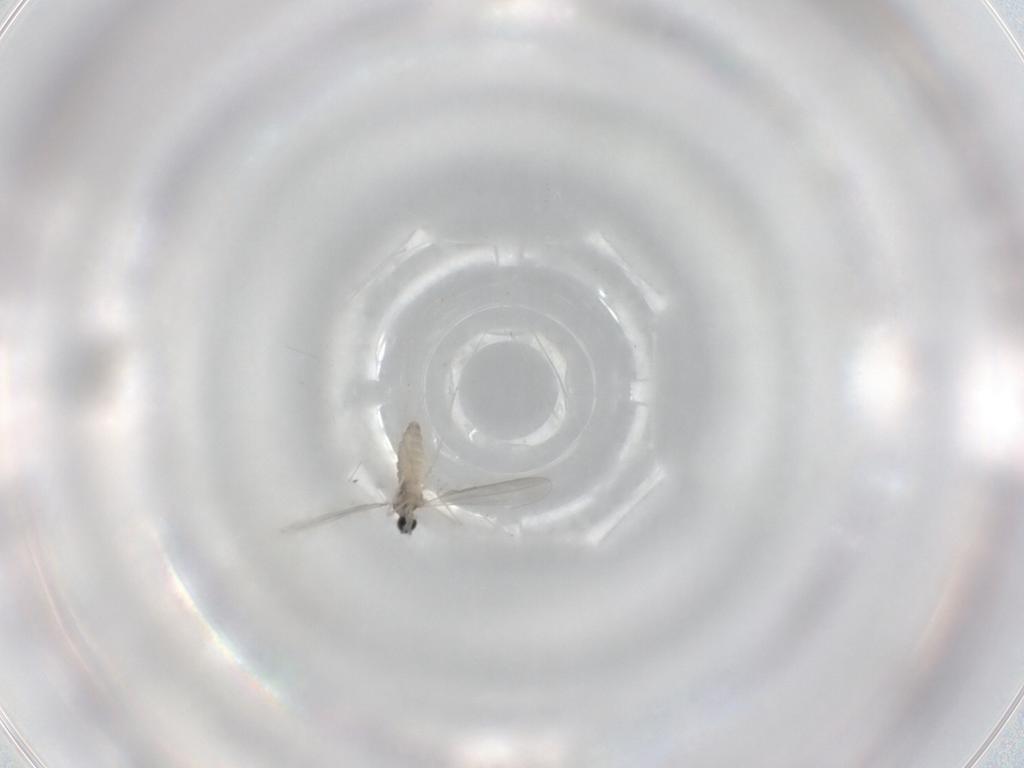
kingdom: Animalia
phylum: Arthropoda
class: Insecta
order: Diptera
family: Cecidomyiidae
